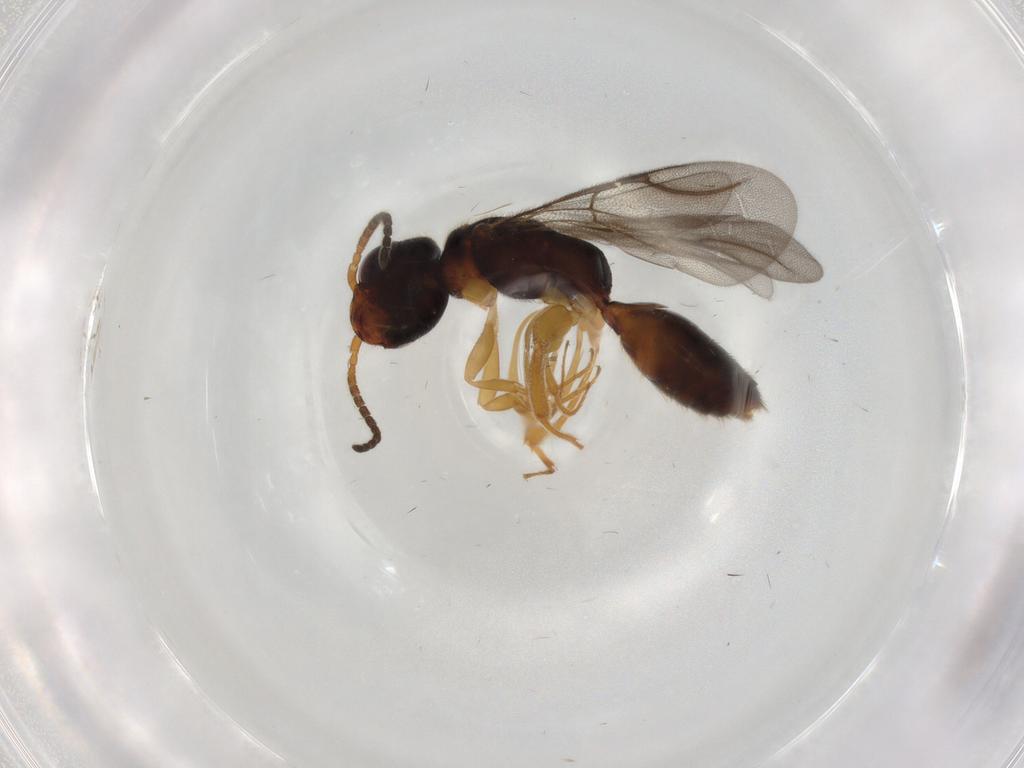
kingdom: Animalia
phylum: Arthropoda
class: Insecta
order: Hymenoptera
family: Bethylidae
